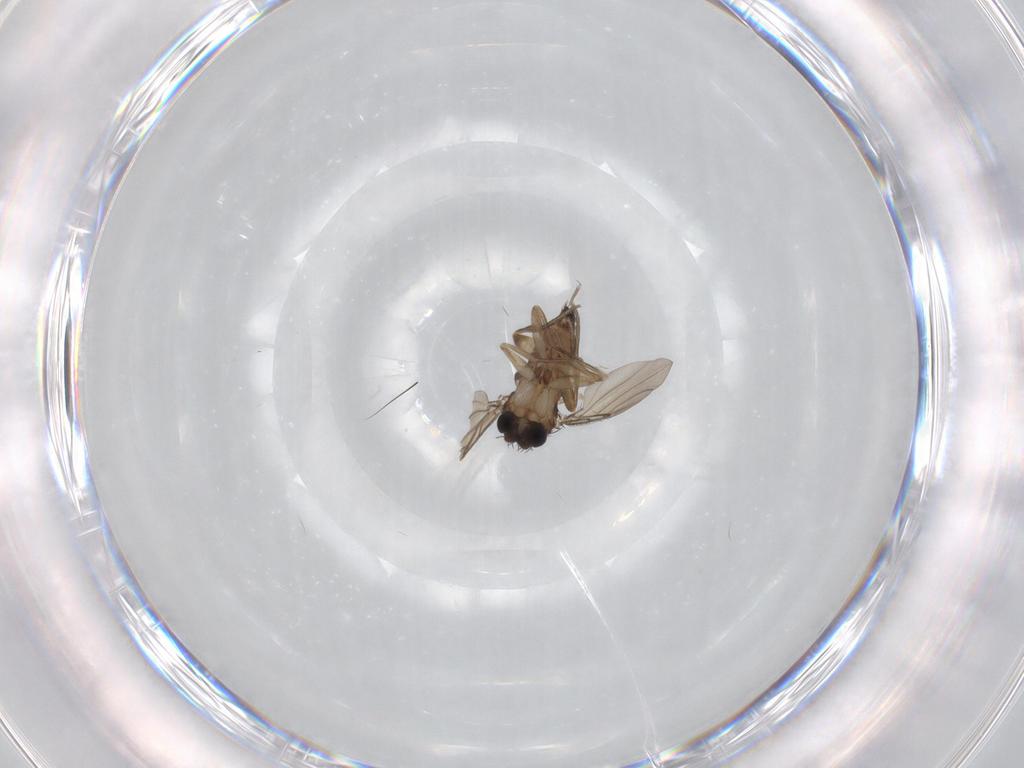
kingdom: Animalia
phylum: Arthropoda
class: Insecta
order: Diptera
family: Phoridae
